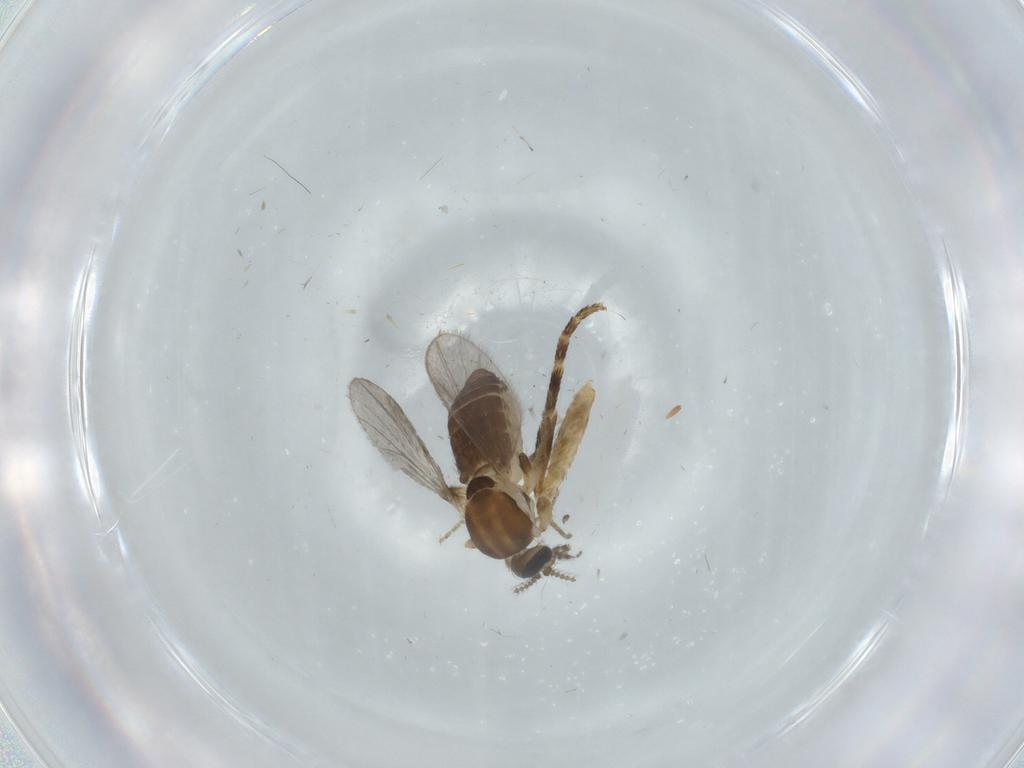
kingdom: Animalia
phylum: Arthropoda
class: Insecta
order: Diptera
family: Ceratopogonidae
